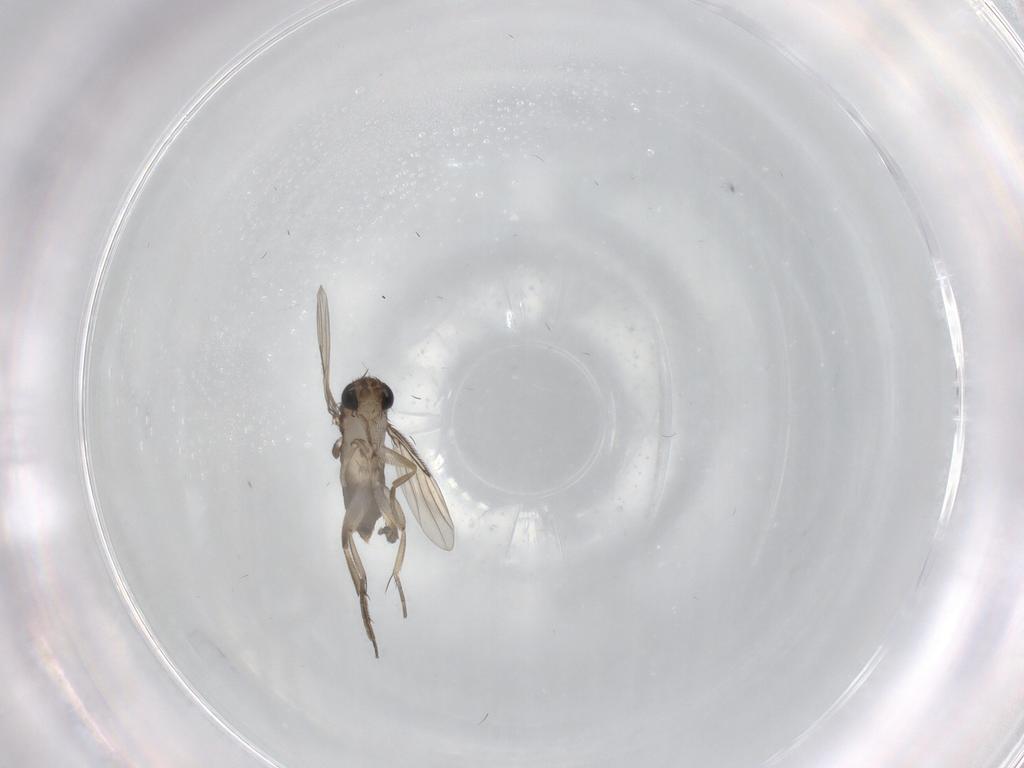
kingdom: Animalia
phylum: Arthropoda
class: Insecta
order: Diptera
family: Phoridae
